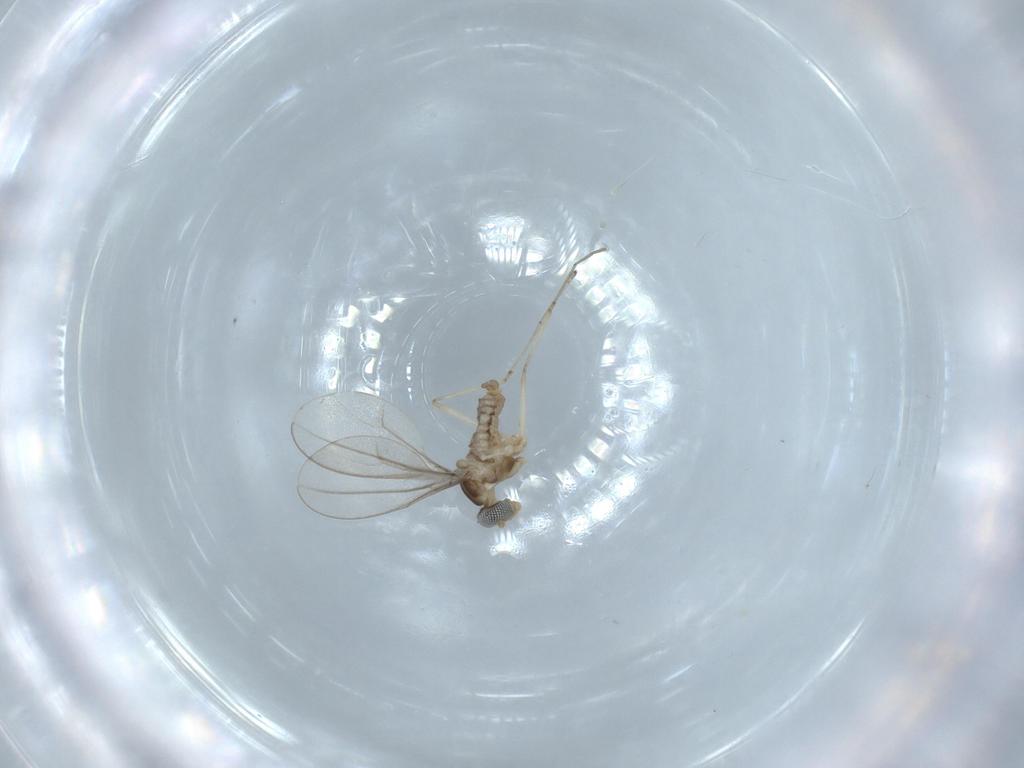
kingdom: Animalia
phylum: Arthropoda
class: Insecta
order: Diptera
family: Cecidomyiidae
